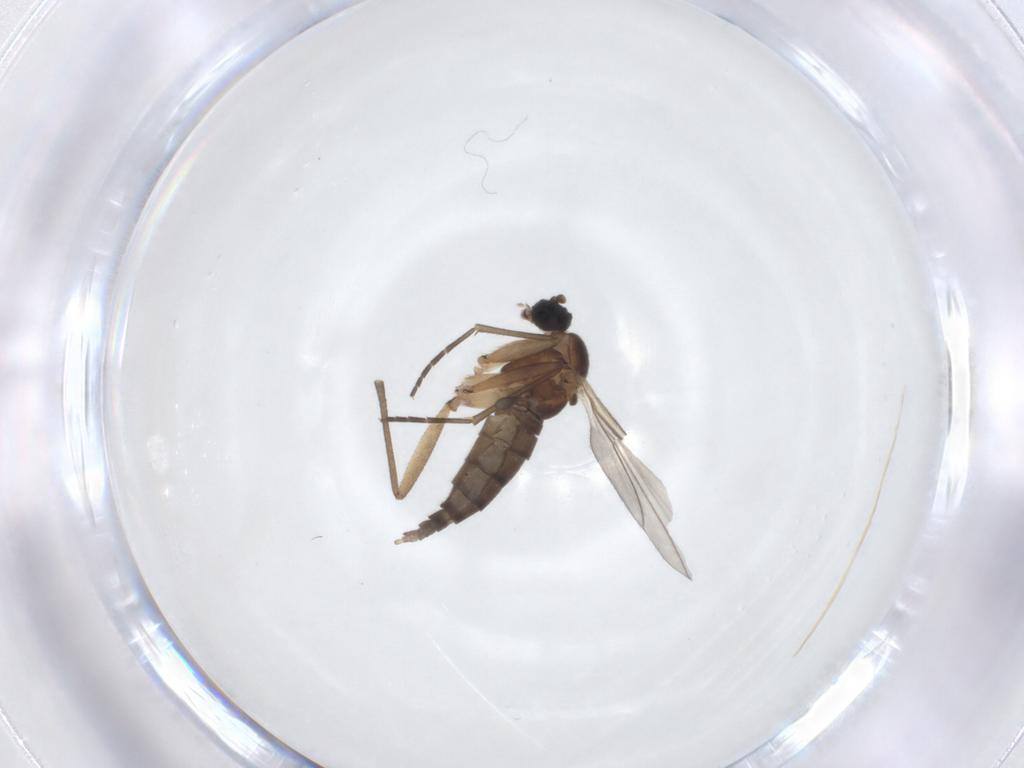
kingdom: Animalia
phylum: Arthropoda
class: Insecta
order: Diptera
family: Sciaridae
